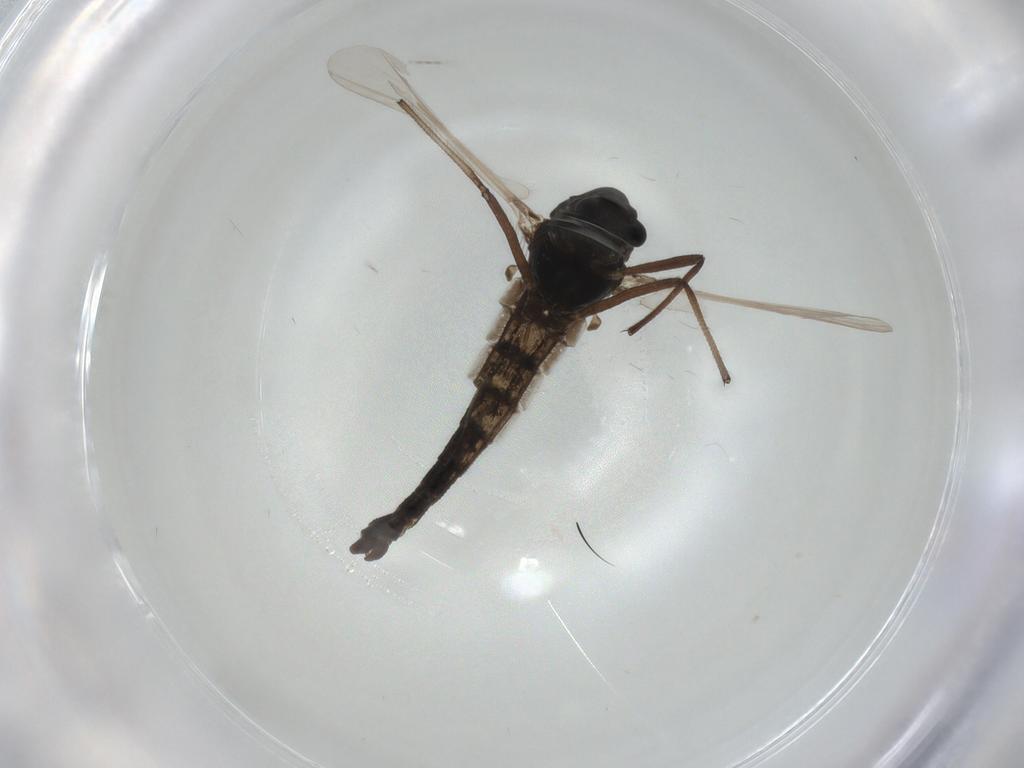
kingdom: Animalia
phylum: Arthropoda
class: Insecta
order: Diptera
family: Chironomidae
